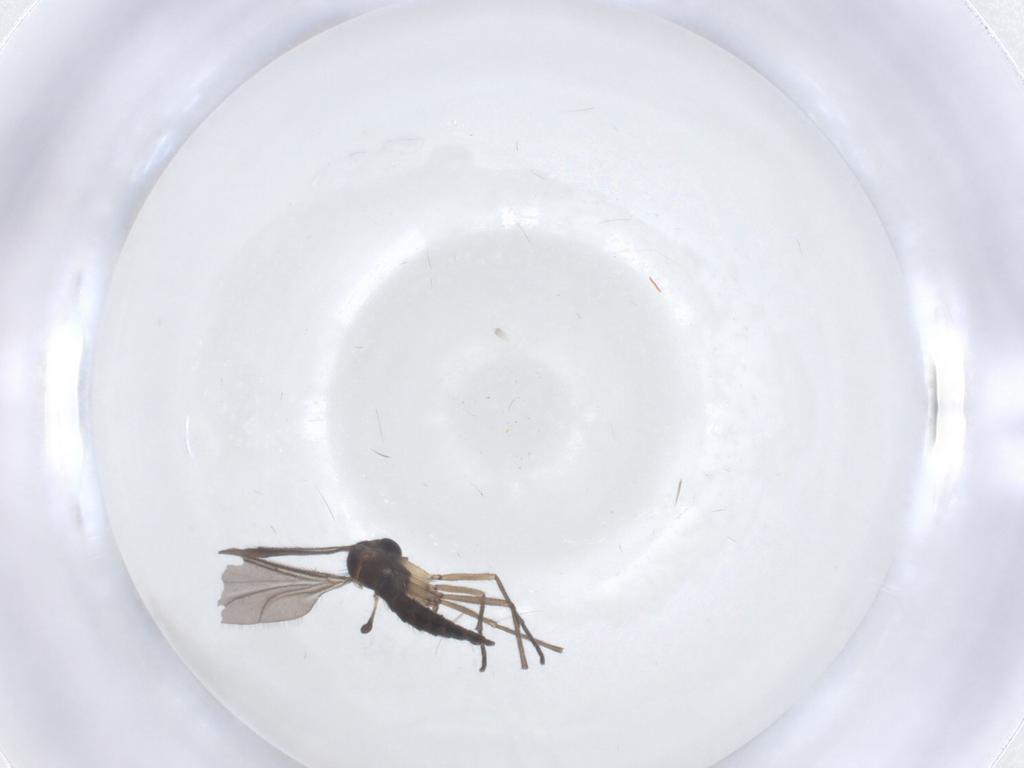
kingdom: Animalia
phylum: Arthropoda
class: Insecta
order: Diptera
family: Sciaridae
